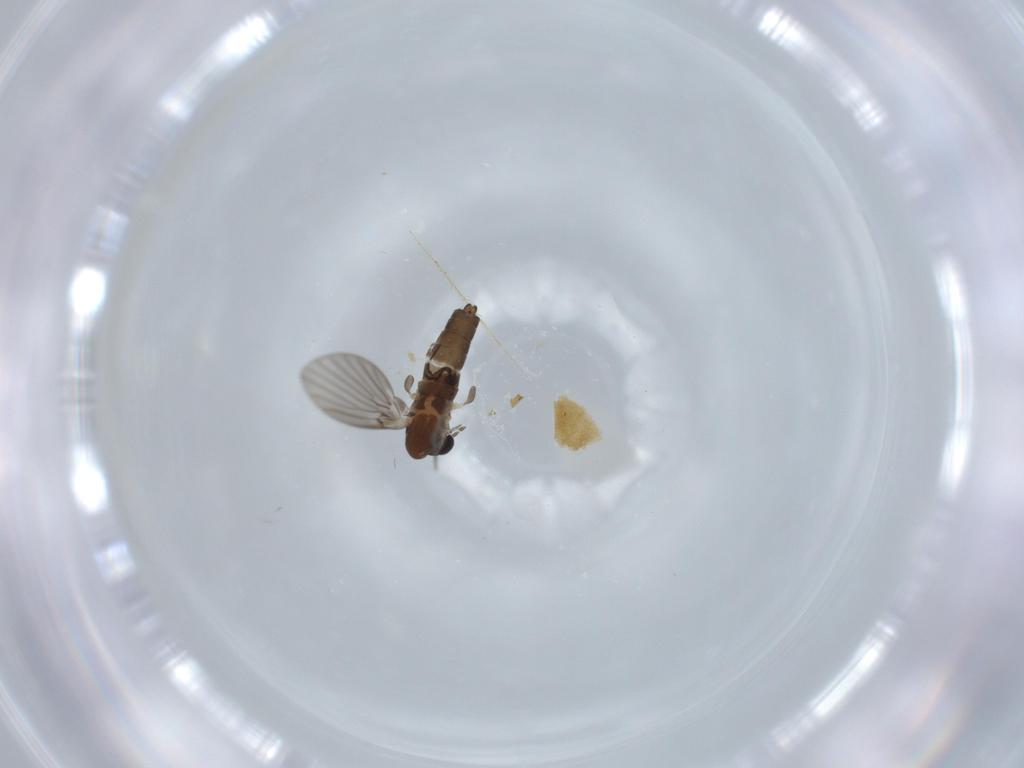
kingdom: Animalia
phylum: Arthropoda
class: Insecta
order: Diptera
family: Psychodidae
